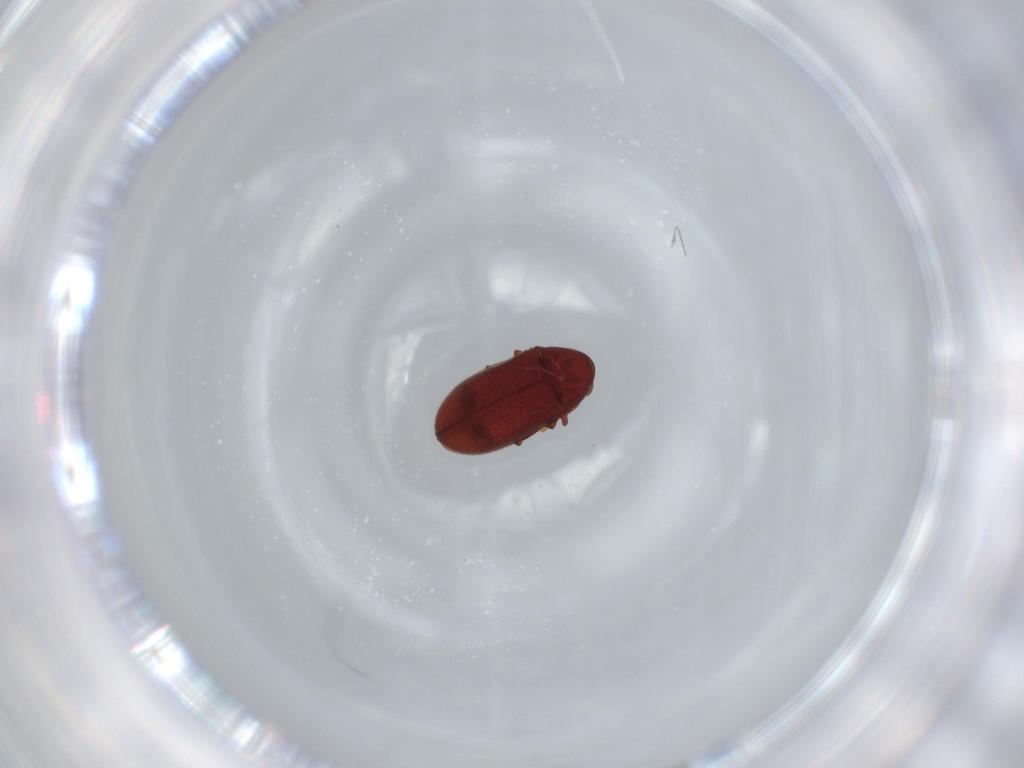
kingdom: Animalia
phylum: Arthropoda
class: Insecta
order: Coleoptera
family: Ptinidae
